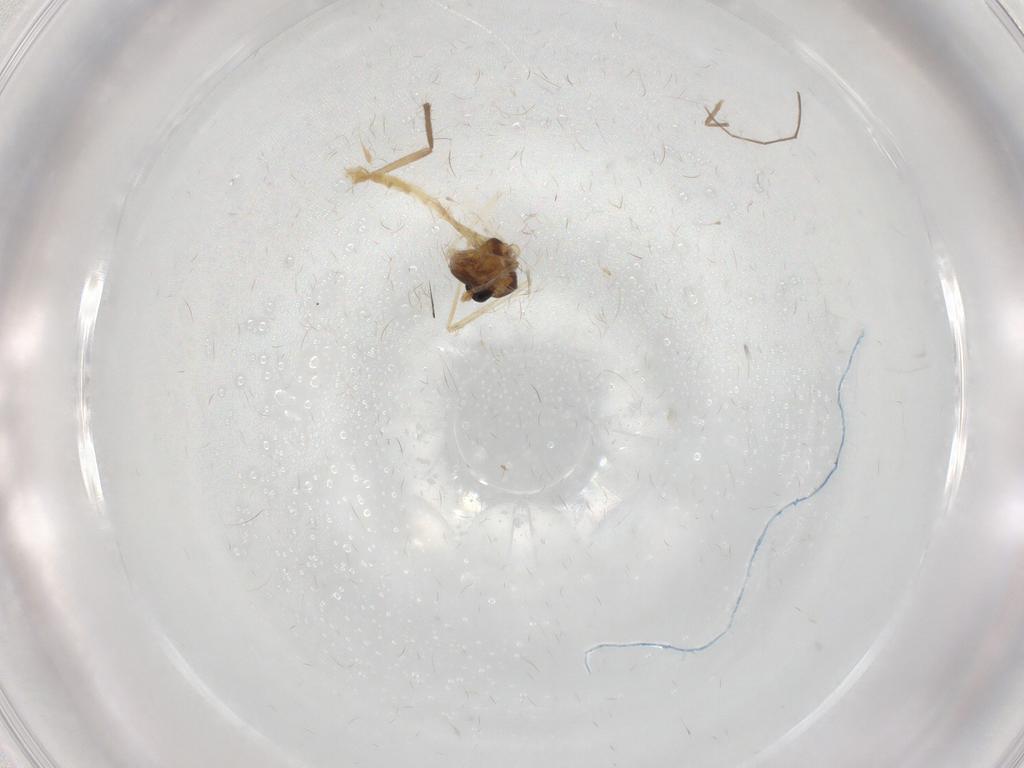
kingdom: Animalia
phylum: Arthropoda
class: Insecta
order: Diptera
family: Chironomidae
